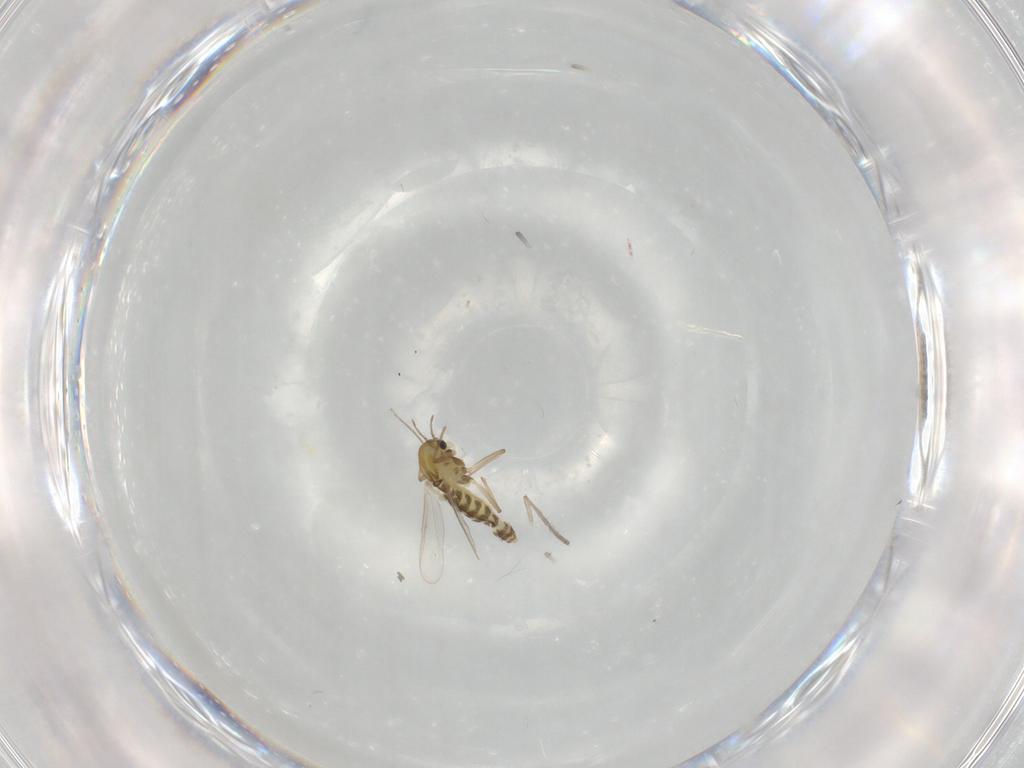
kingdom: Animalia
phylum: Arthropoda
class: Insecta
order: Diptera
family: Chironomidae
